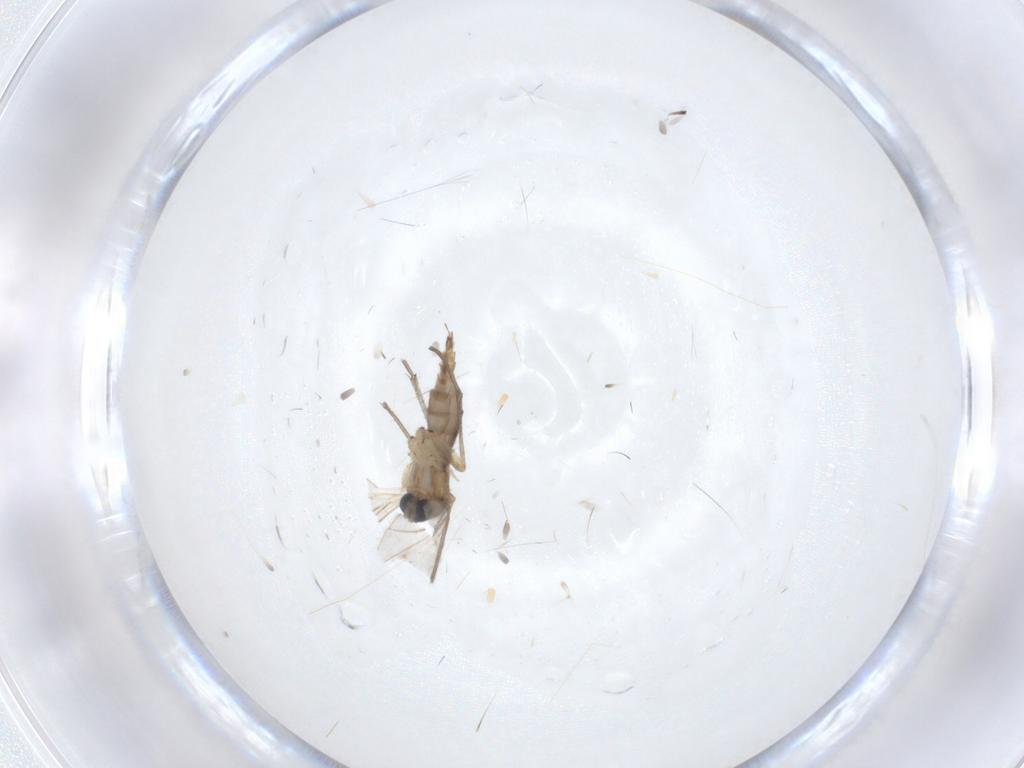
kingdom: Animalia
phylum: Arthropoda
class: Insecta
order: Diptera
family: Sciaridae
